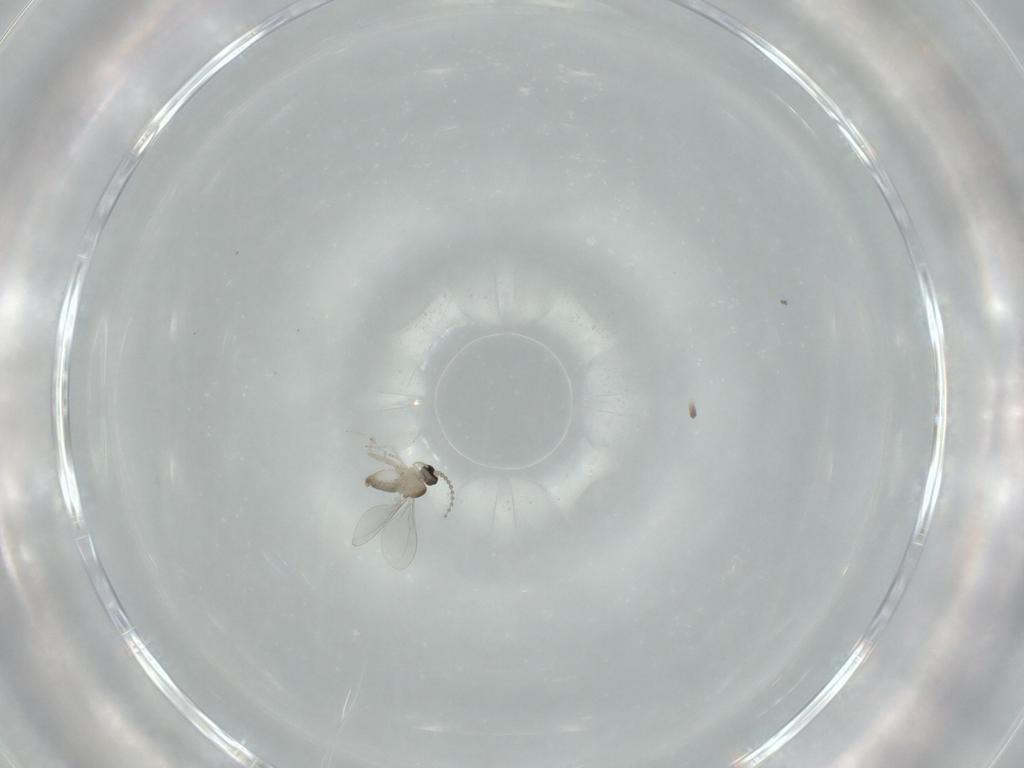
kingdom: Animalia
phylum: Arthropoda
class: Insecta
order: Diptera
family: Cecidomyiidae
